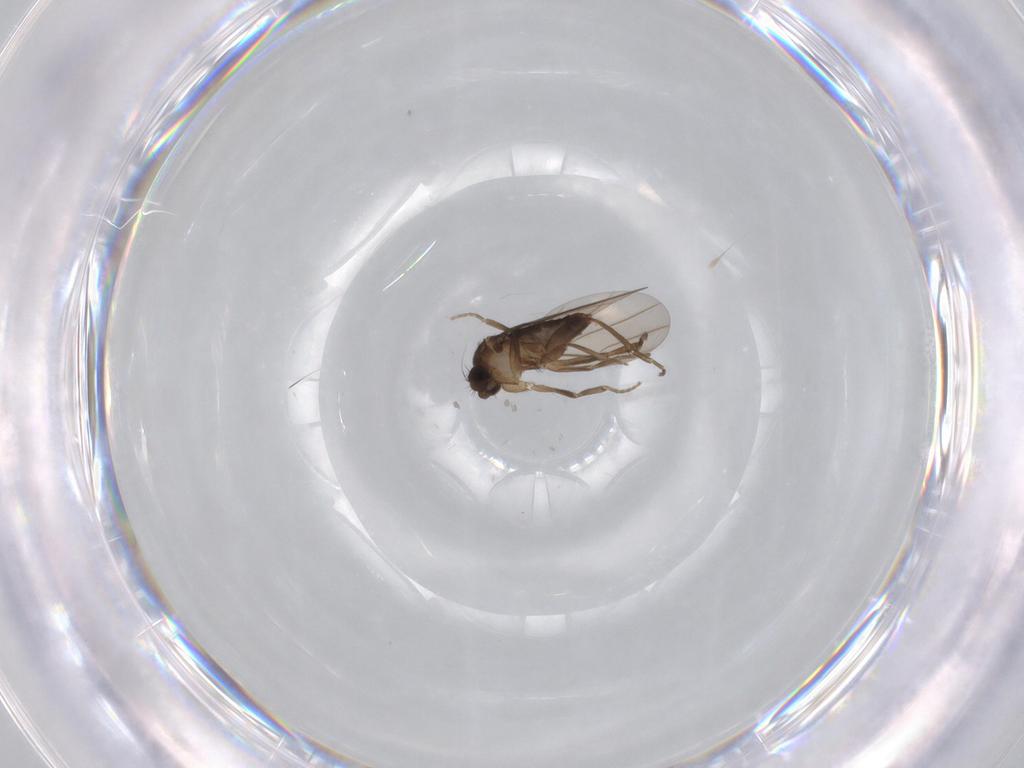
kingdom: Animalia
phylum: Arthropoda
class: Insecta
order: Diptera
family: Phoridae
